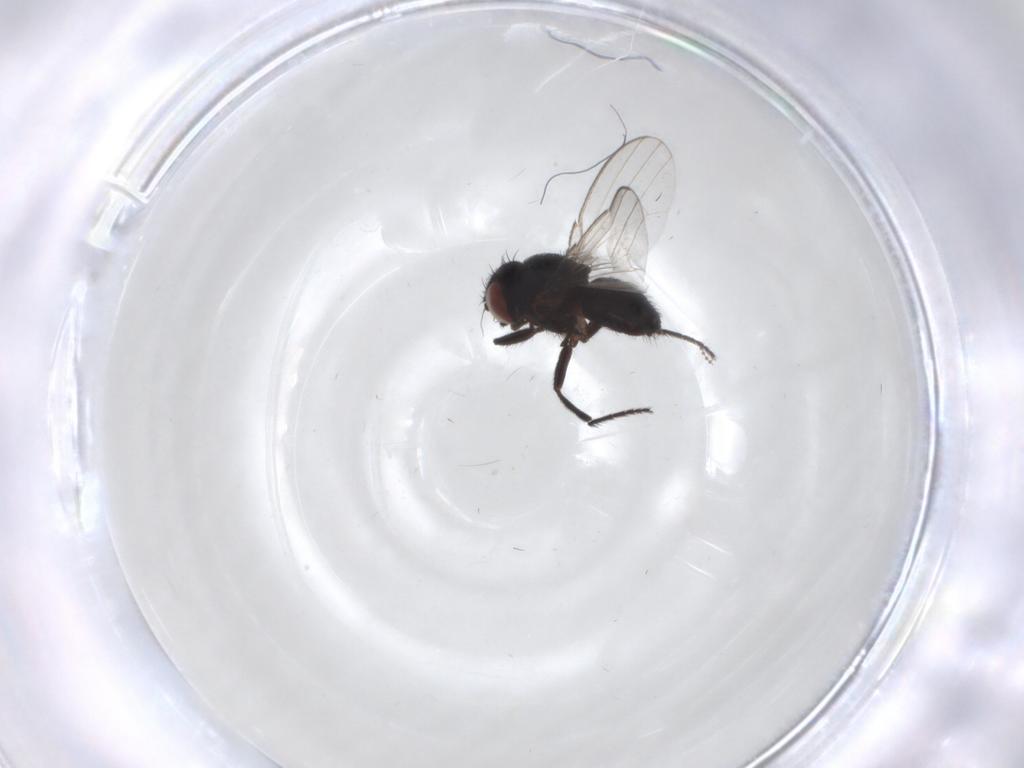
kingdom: Animalia
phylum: Arthropoda
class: Insecta
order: Diptera
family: Milichiidae
